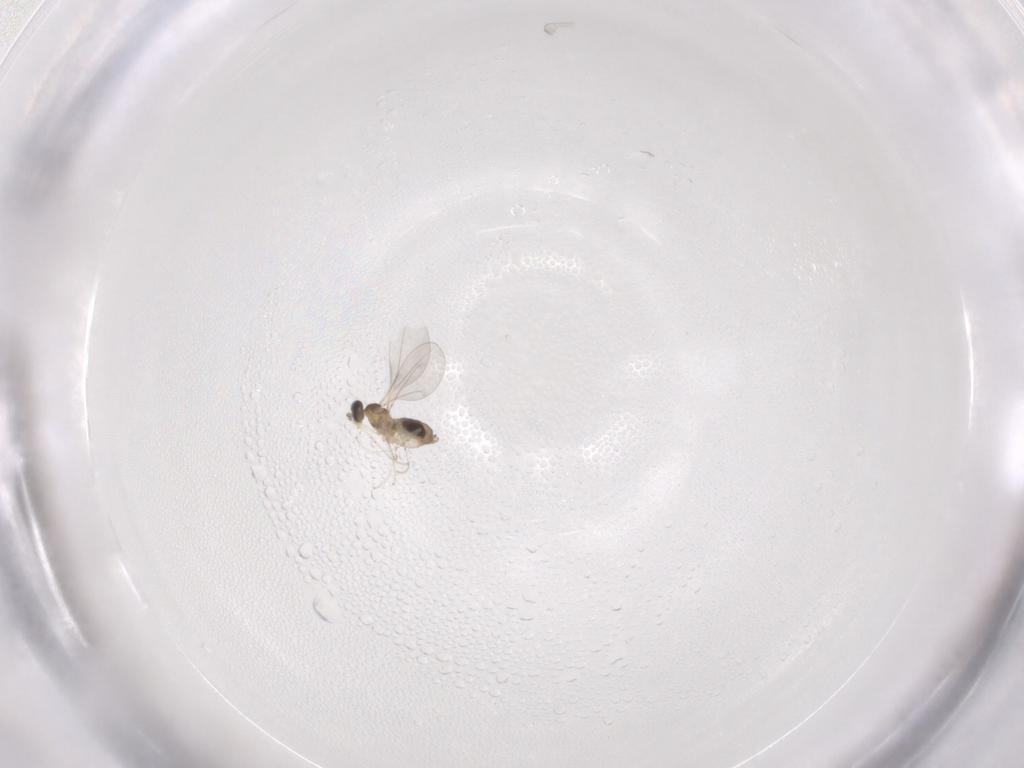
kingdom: Animalia
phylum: Arthropoda
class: Insecta
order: Diptera
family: Cecidomyiidae
